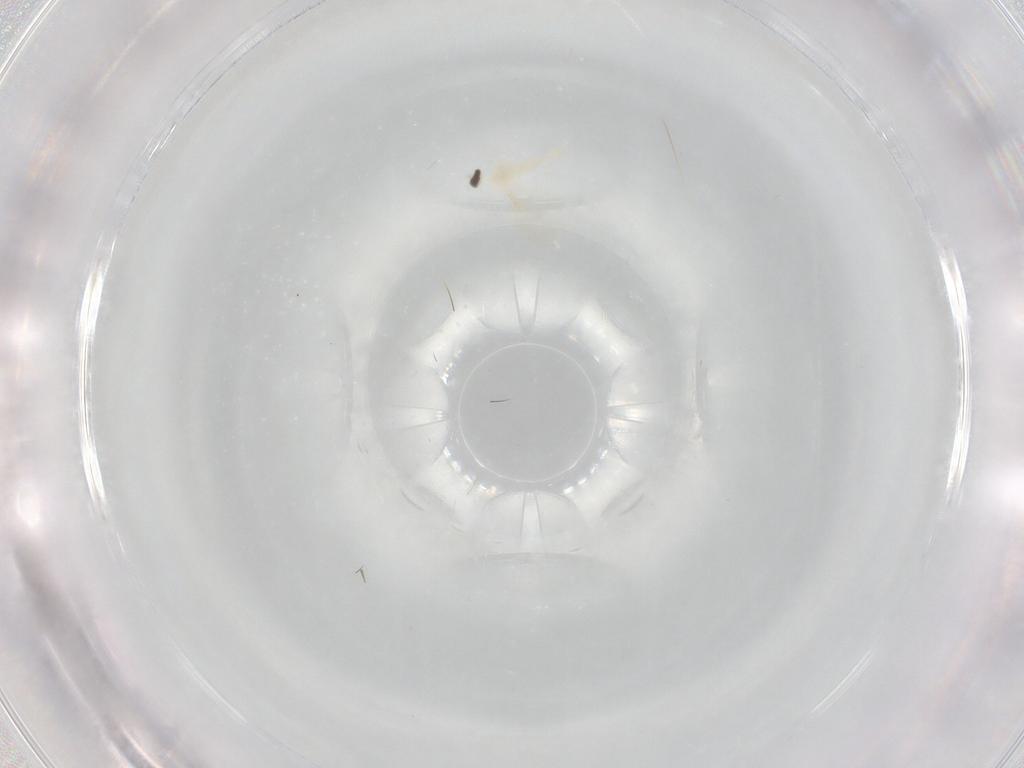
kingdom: Animalia
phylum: Arthropoda
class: Insecta
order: Diptera
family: Cecidomyiidae
